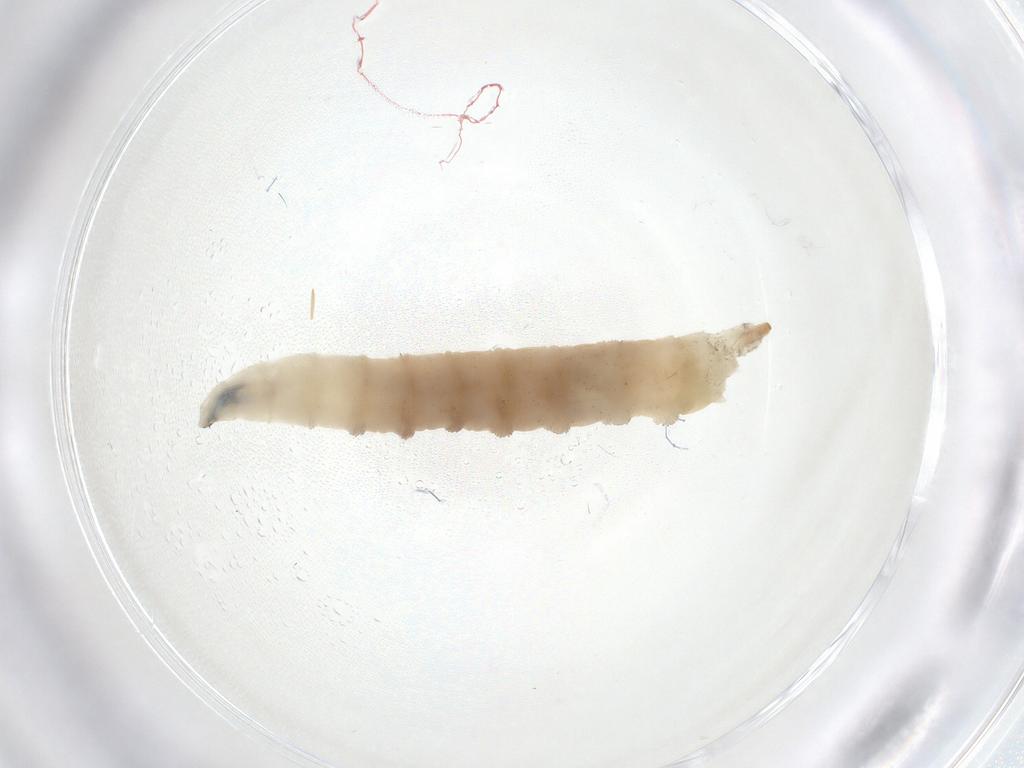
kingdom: Animalia
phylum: Arthropoda
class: Insecta
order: Diptera
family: Drosophilidae
